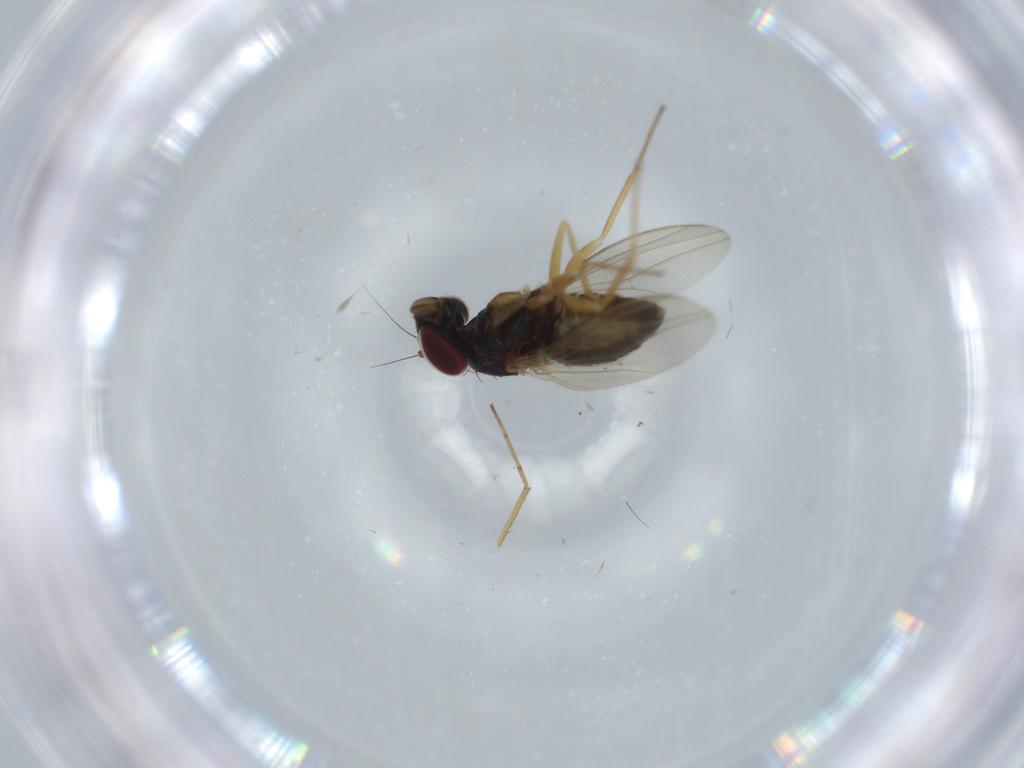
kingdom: Animalia
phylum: Arthropoda
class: Insecta
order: Diptera
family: Dolichopodidae
